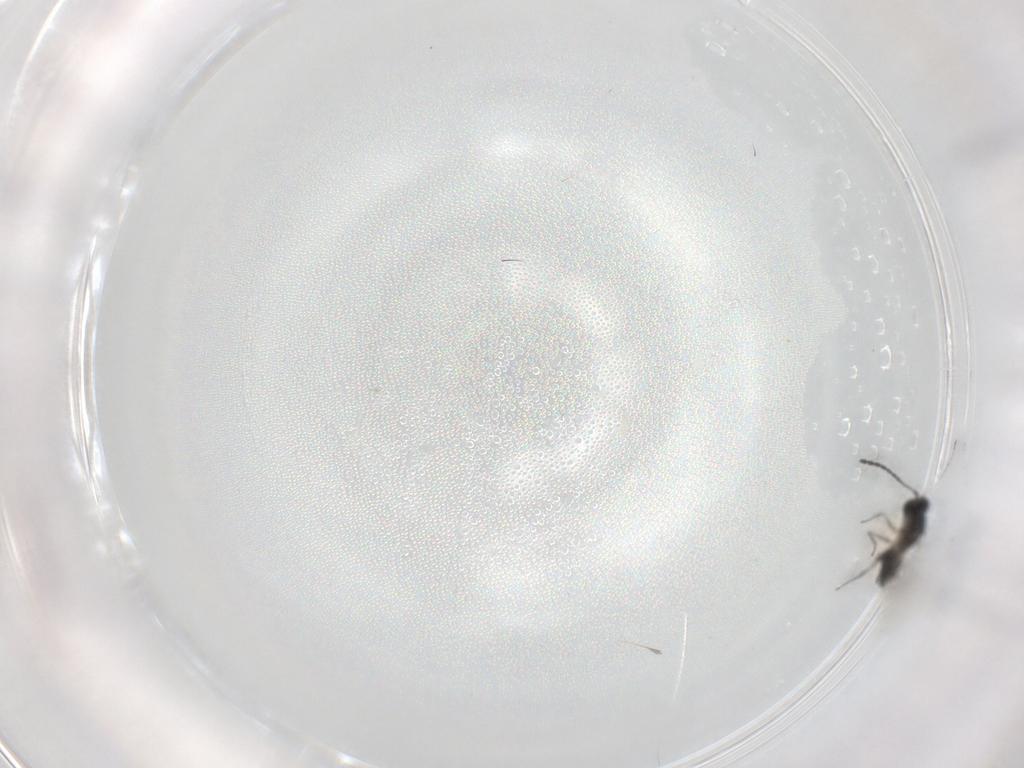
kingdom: Animalia
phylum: Arthropoda
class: Insecta
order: Hymenoptera
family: Figitidae
